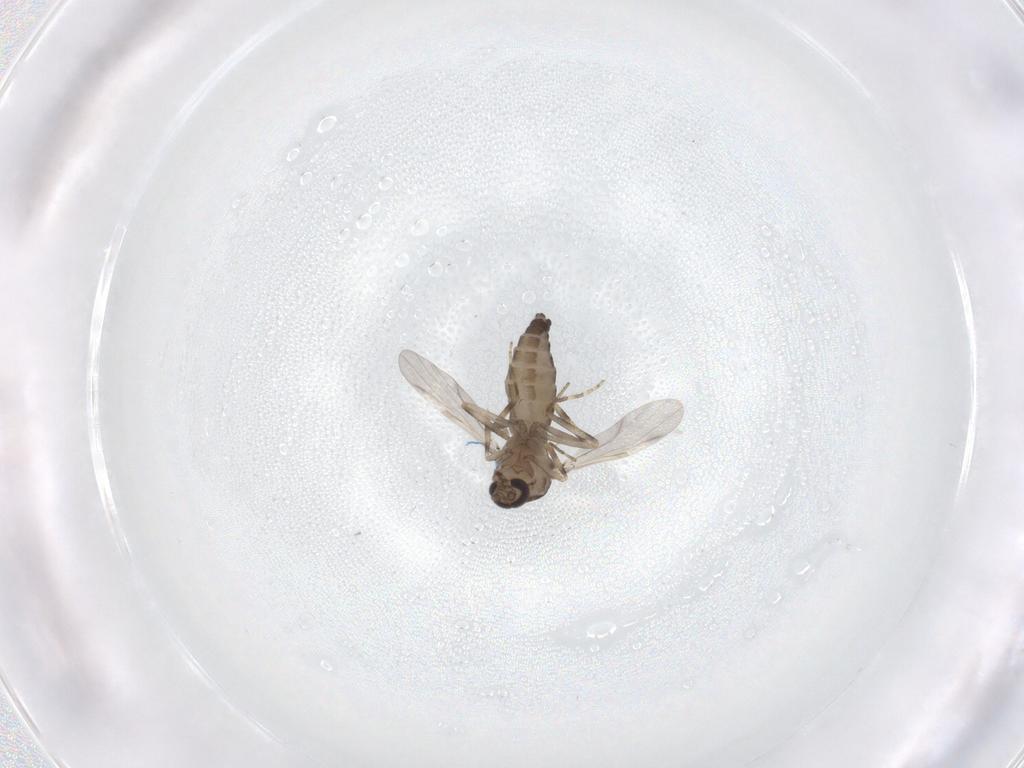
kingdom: Animalia
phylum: Arthropoda
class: Insecta
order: Diptera
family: Ceratopogonidae
